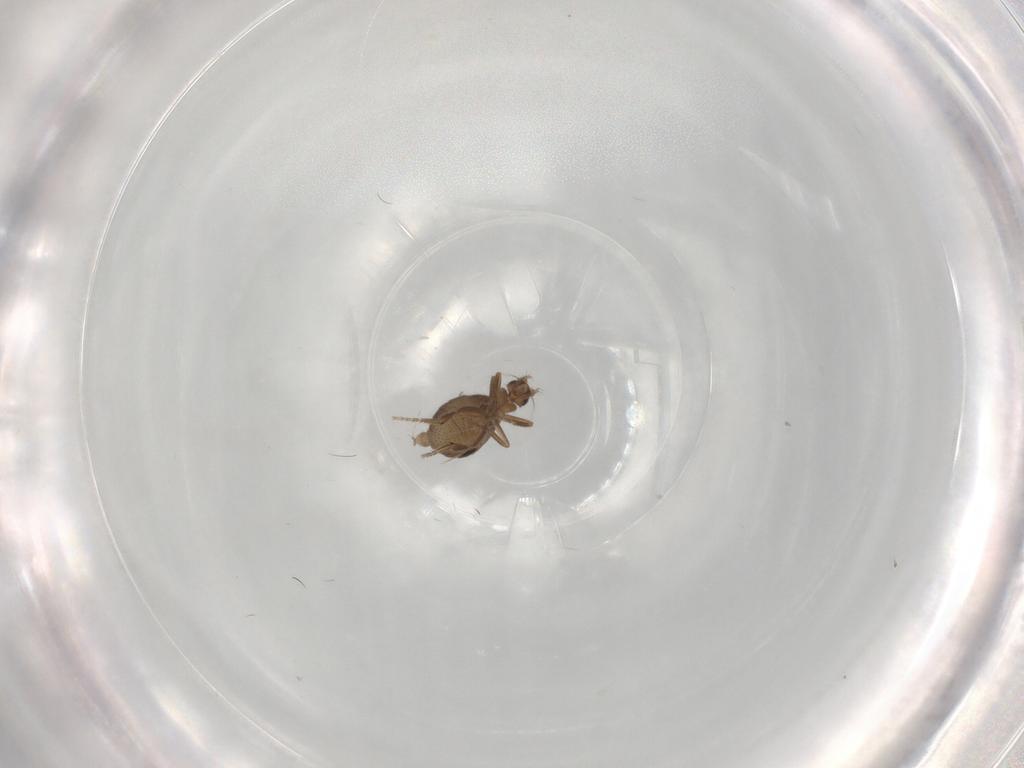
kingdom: Animalia
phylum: Arthropoda
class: Insecta
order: Diptera
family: Phoridae
